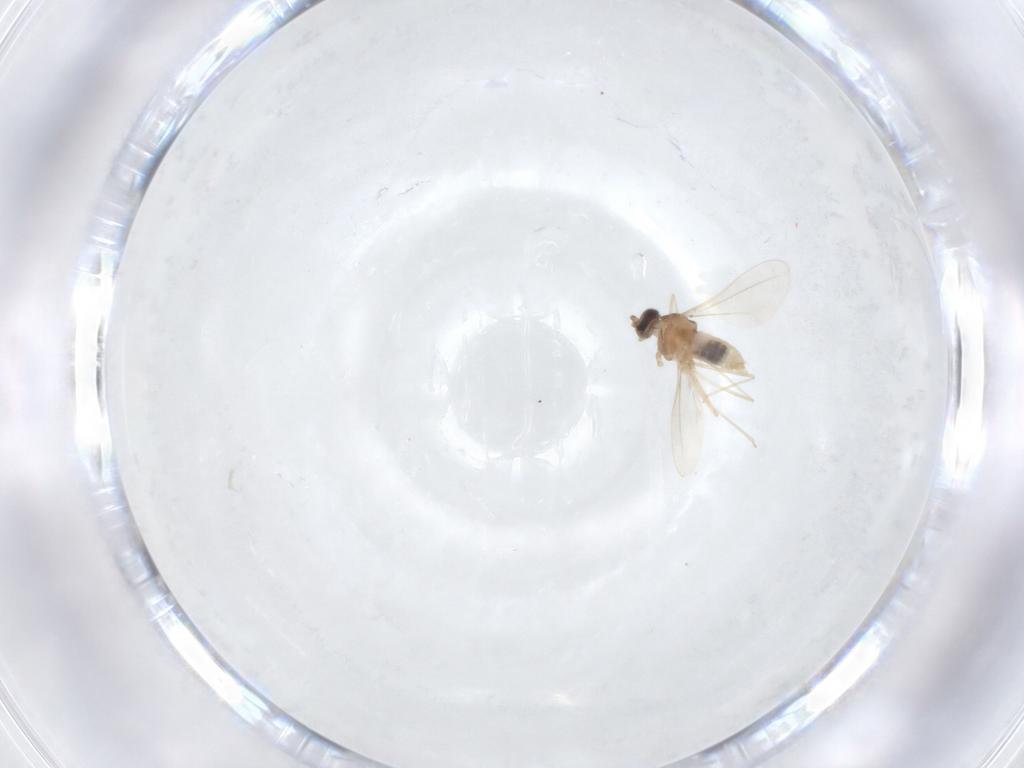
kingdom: Animalia
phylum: Arthropoda
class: Insecta
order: Diptera
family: Cecidomyiidae
